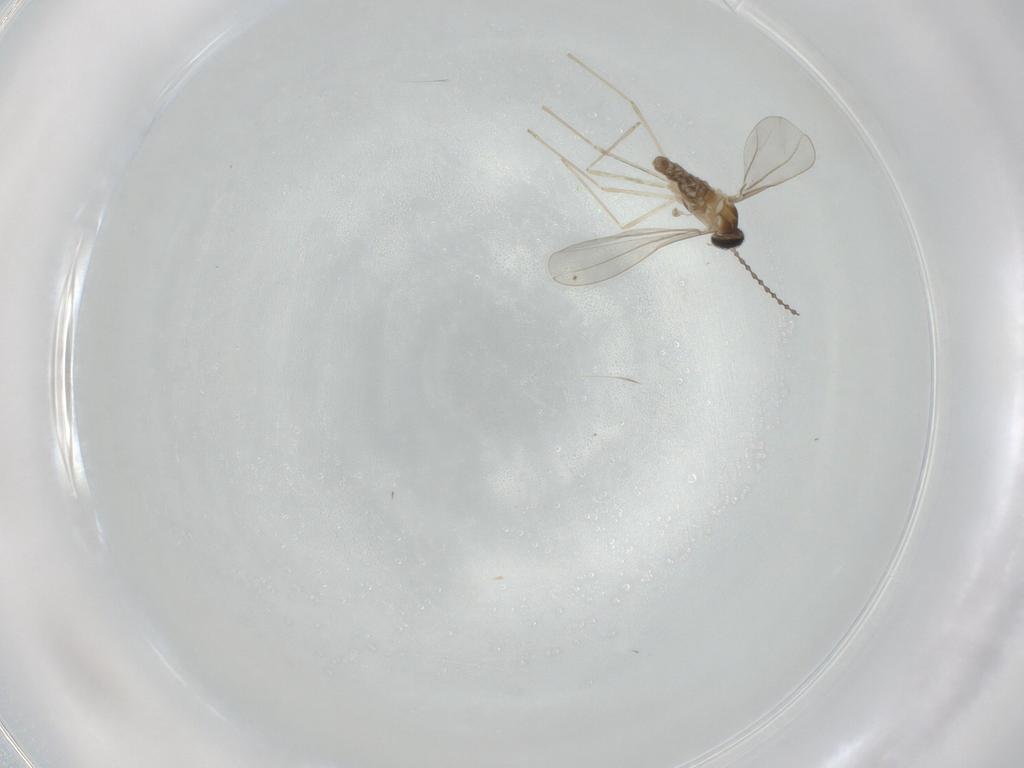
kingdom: Animalia
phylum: Arthropoda
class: Insecta
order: Diptera
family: Cecidomyiidae
